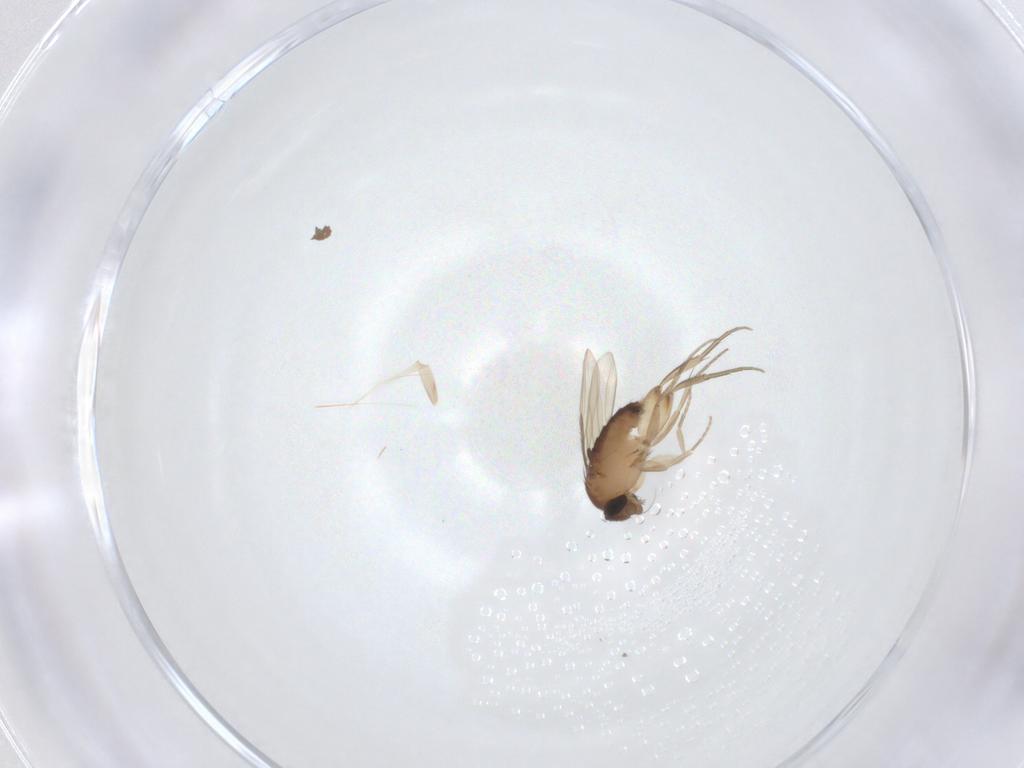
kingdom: Animalia
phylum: Arthropoda
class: Insecta
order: Diptera
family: Phoridae
